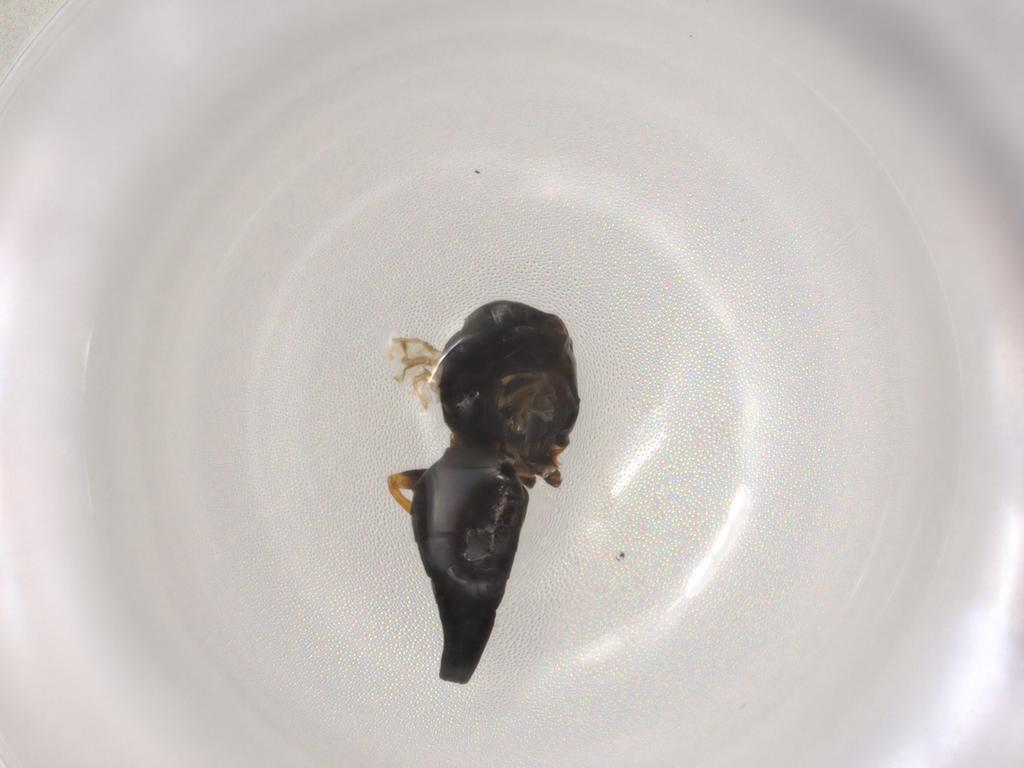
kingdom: Animalia
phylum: Arthropoda
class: Insecta
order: Diptera
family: Tephritidae
